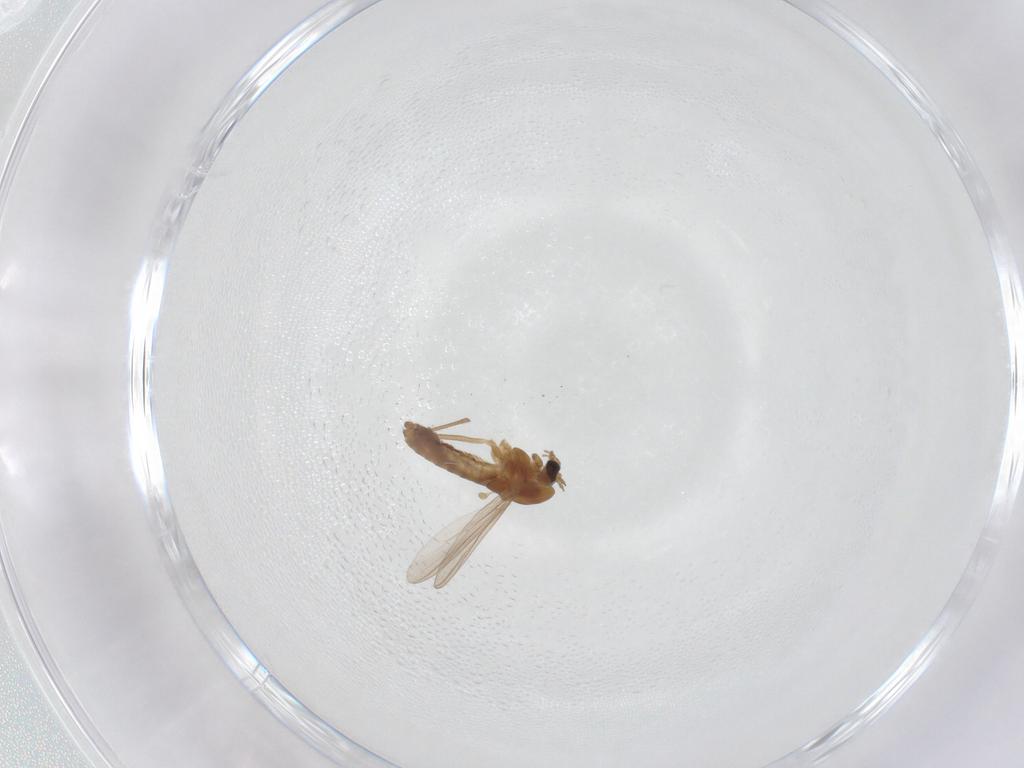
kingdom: Animalia
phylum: Arthropoda
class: Insecta
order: Diptera
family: Chironomidae
